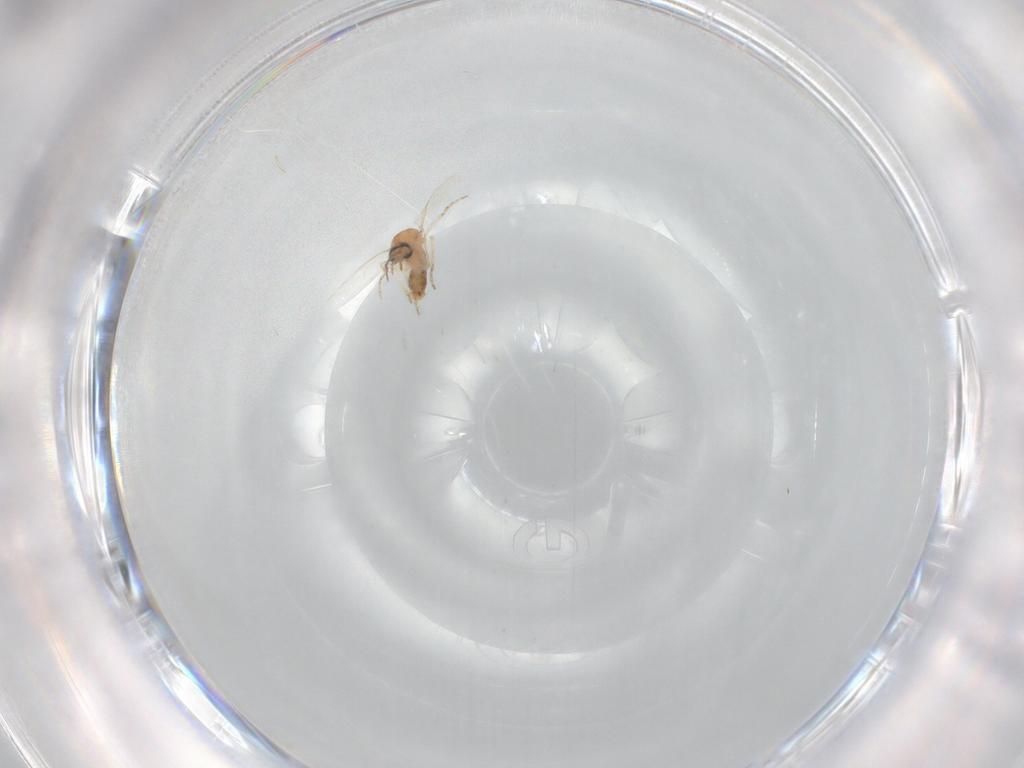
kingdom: Animalia
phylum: Arthropoda
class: Insecta
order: Diptera
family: Ceratopogonidae
